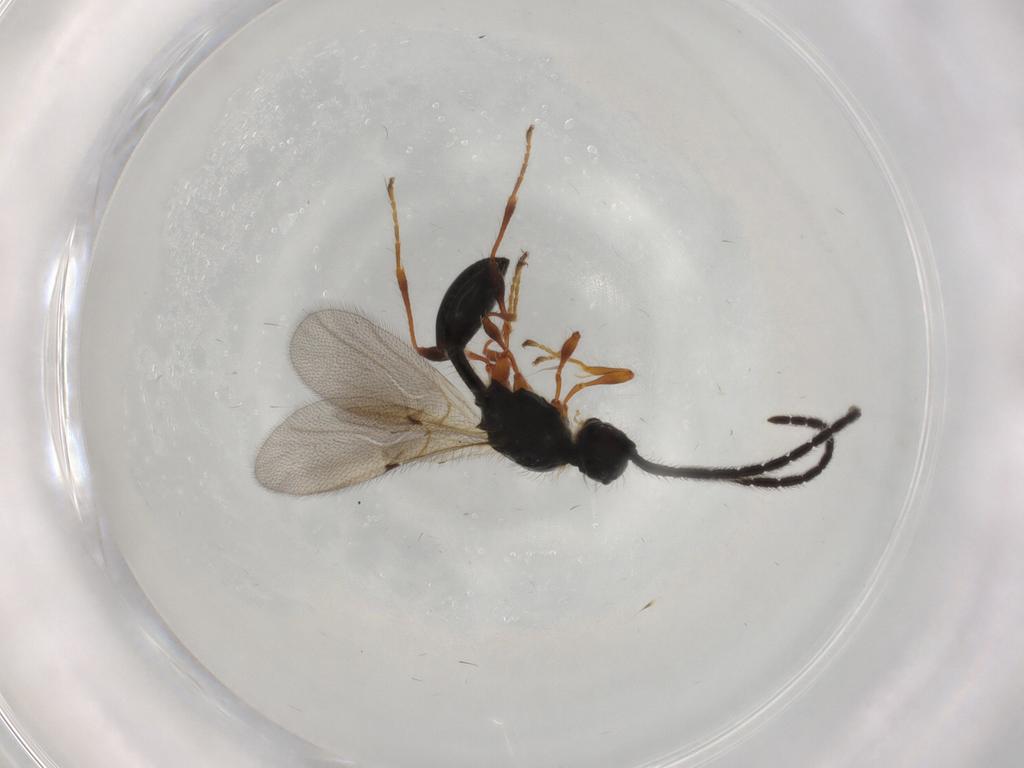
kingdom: Animalia
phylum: Arthropoda
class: Insecta
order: Hymenoptera
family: Diapriidae
